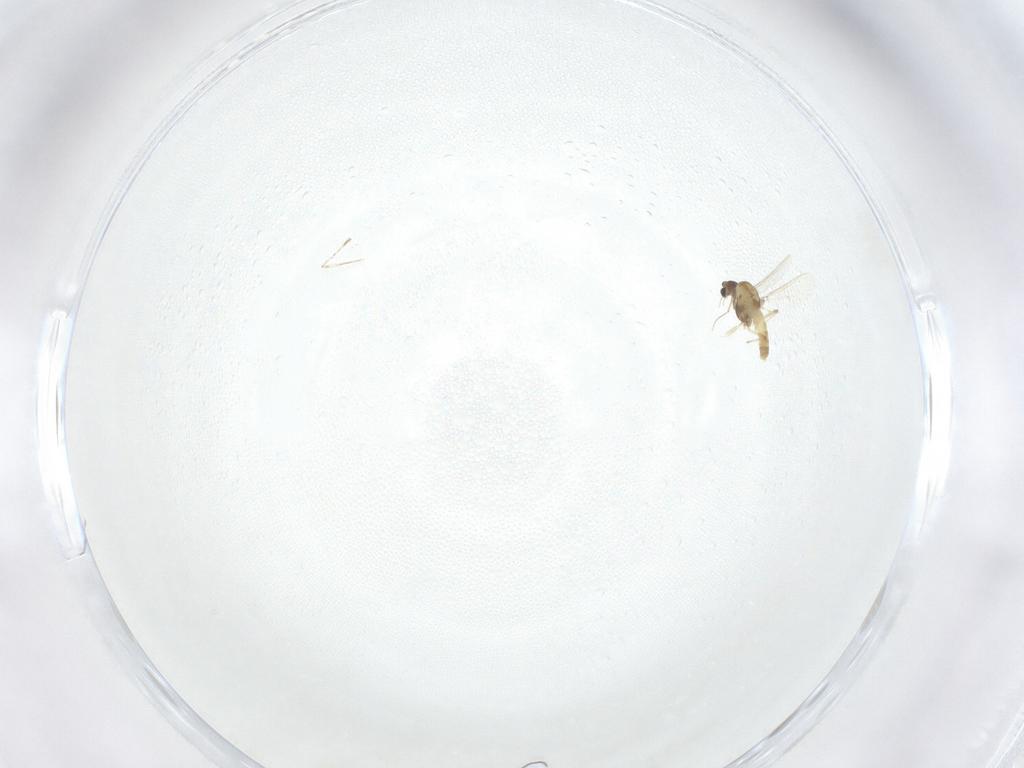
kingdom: Animalia
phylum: Arthropoda
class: Insecta
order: Diptera
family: Chironomidae
